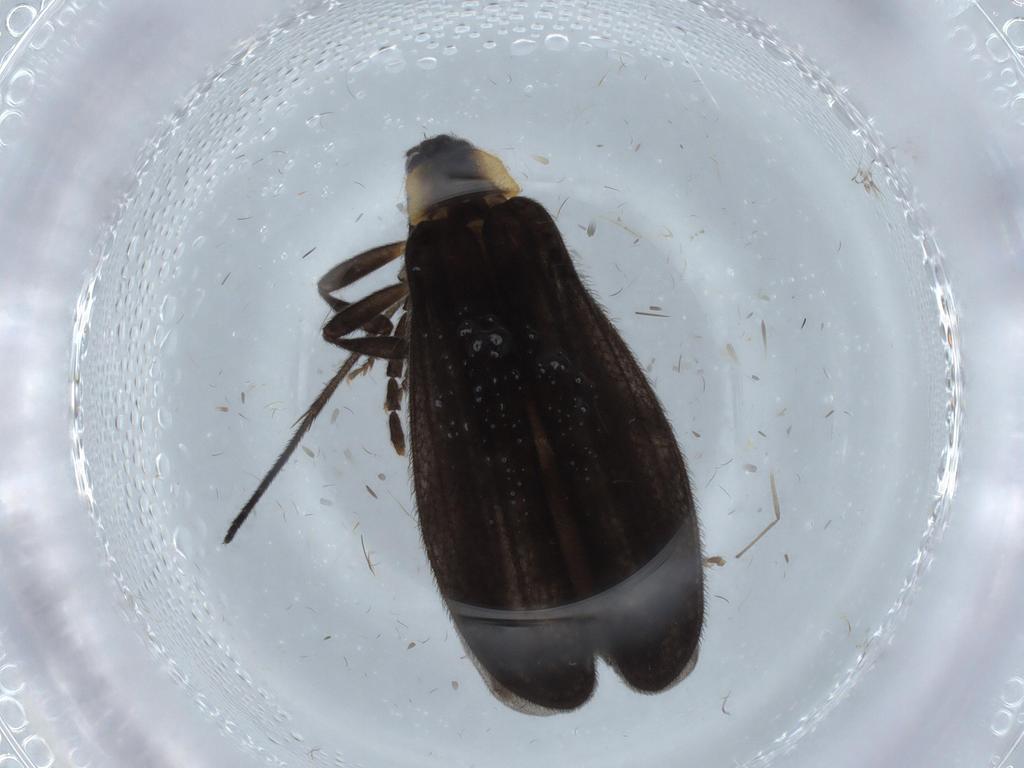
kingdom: Animalia
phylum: Arthropoda
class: Insecta
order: Coleoptera
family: Lycidae
